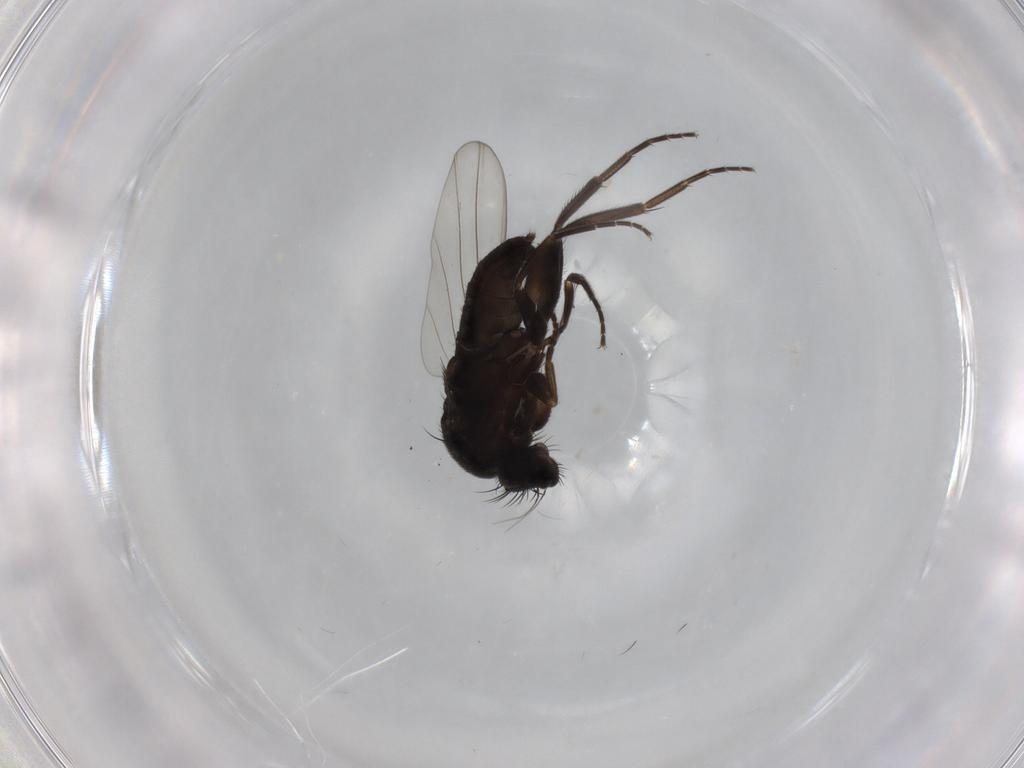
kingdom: Animalia
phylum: Arthropoda
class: Insecta
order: Diptera
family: Phoridae
